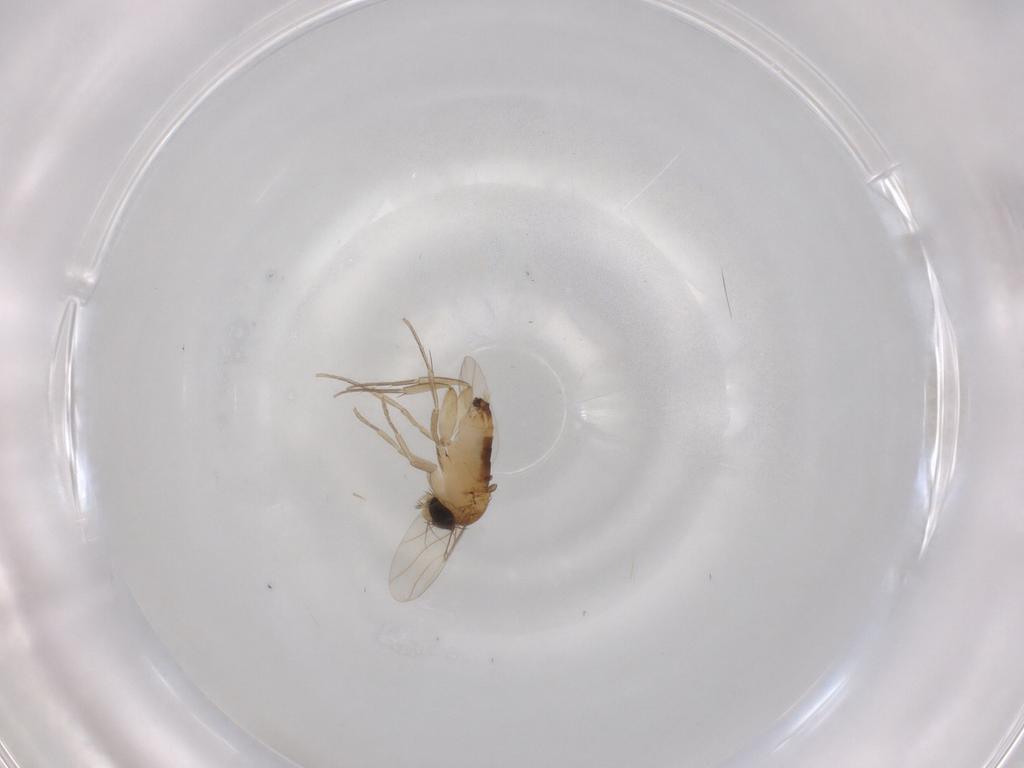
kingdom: Animalia
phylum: Arthropoda
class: Insecta
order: Diptera
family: Phoridae
